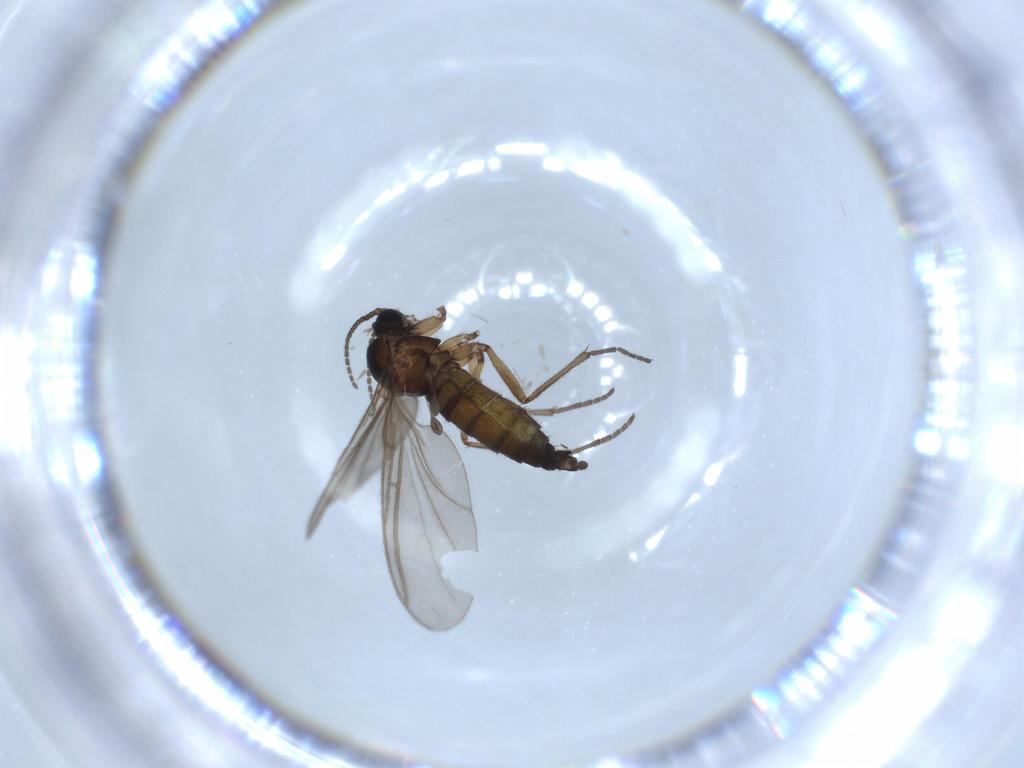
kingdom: Animalia
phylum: Arthropoda
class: Insecta
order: Diptera
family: Sciaridae
